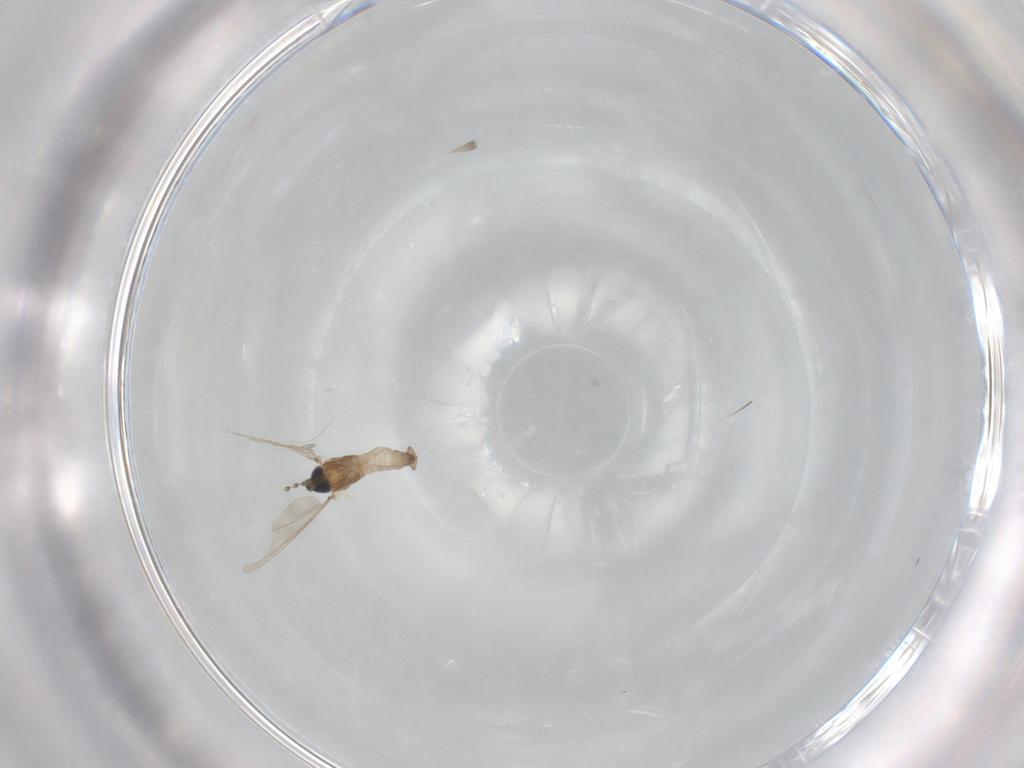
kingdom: Animalia
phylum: Arthropoda
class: Insecta
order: Diptera
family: Cecidomyiidae
